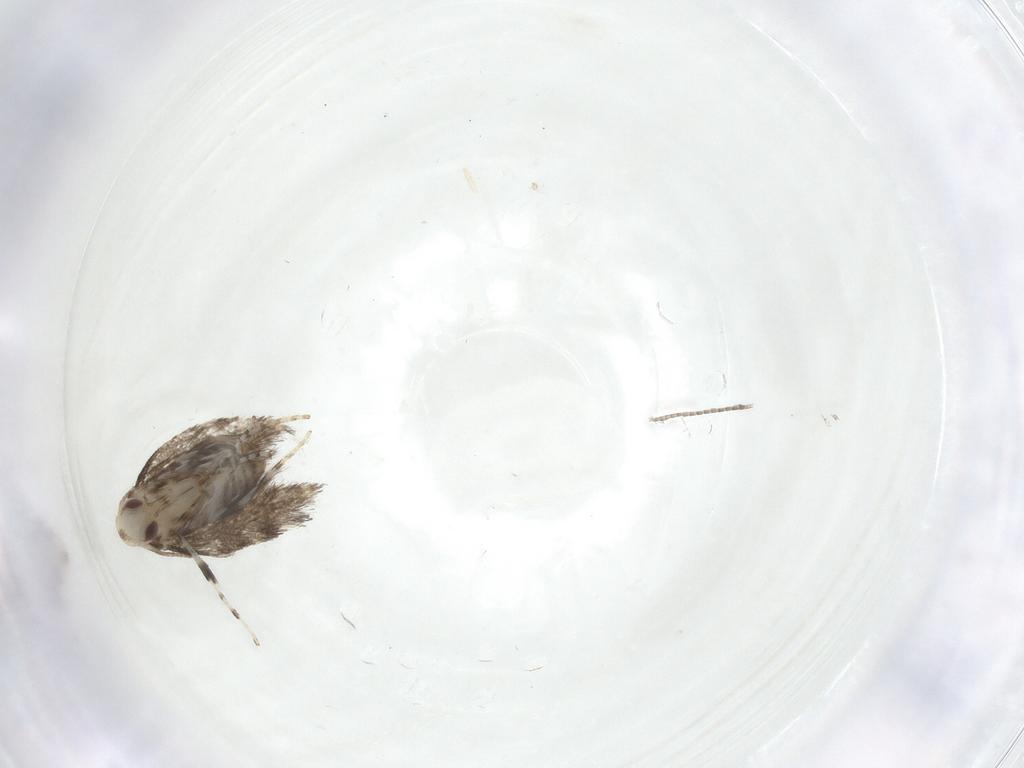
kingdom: Animalia
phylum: Arthropoda
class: Insecta
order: Lepidoptera
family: Gracillariidae
